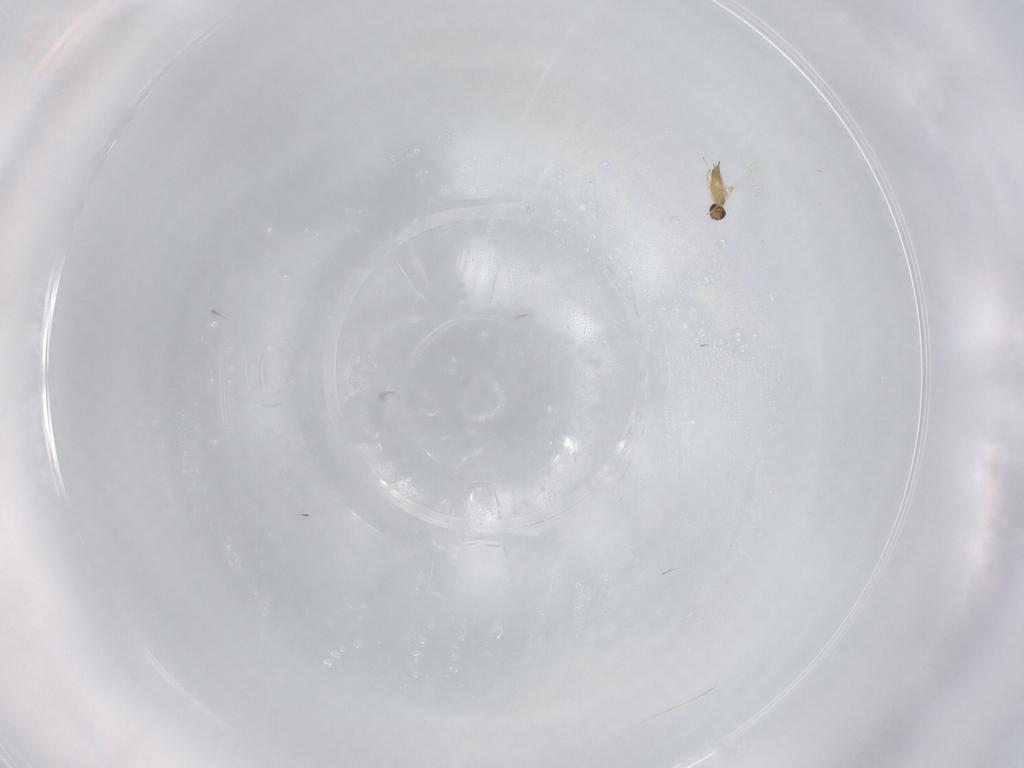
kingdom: Animalia
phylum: Arthropoda
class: Insecta
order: Hymenoptera
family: Mymaridae
